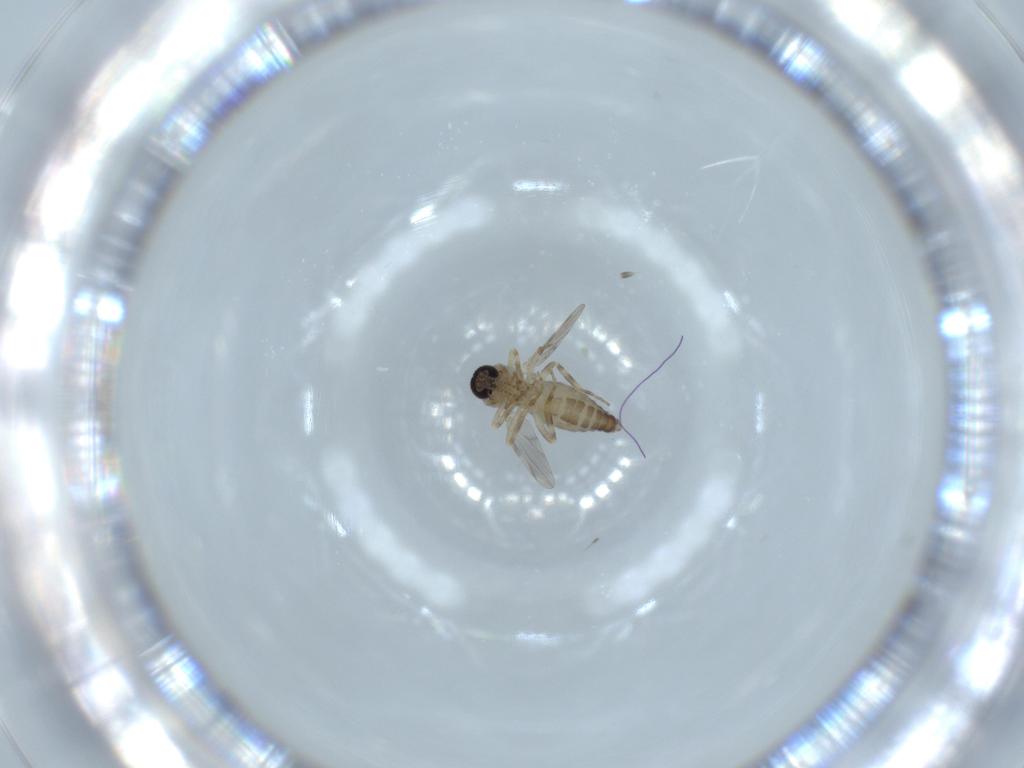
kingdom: Animalia
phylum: Arthropoda
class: Insecta
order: Diptera
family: Ceratopogonidae
